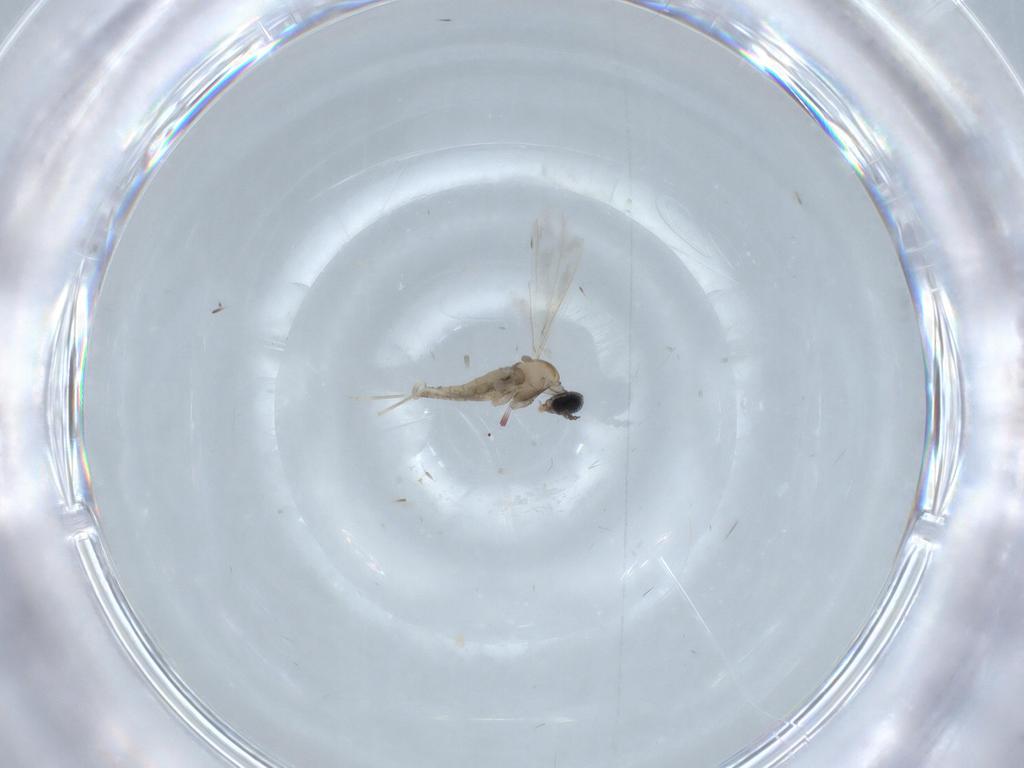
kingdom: Animalia
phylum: Arthropoda
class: Insecta
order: Diptera
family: Cecidomyiidae
